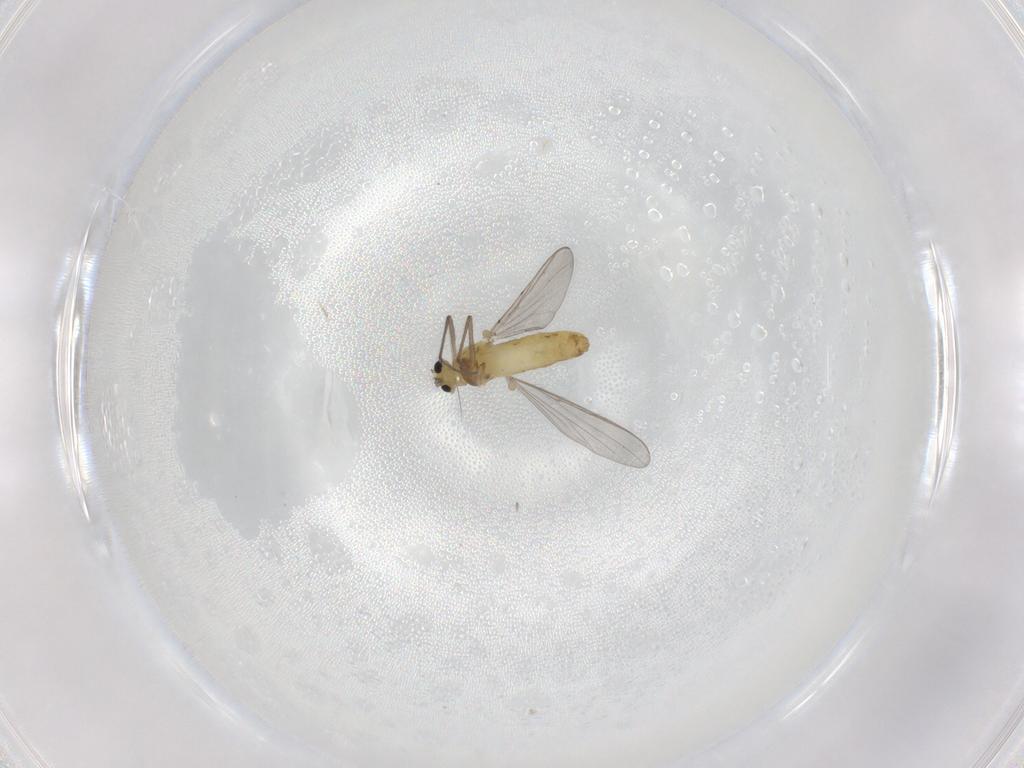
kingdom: Animalia
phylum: Arthropoda
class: Insecta
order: Diptera
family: Chironomidae
